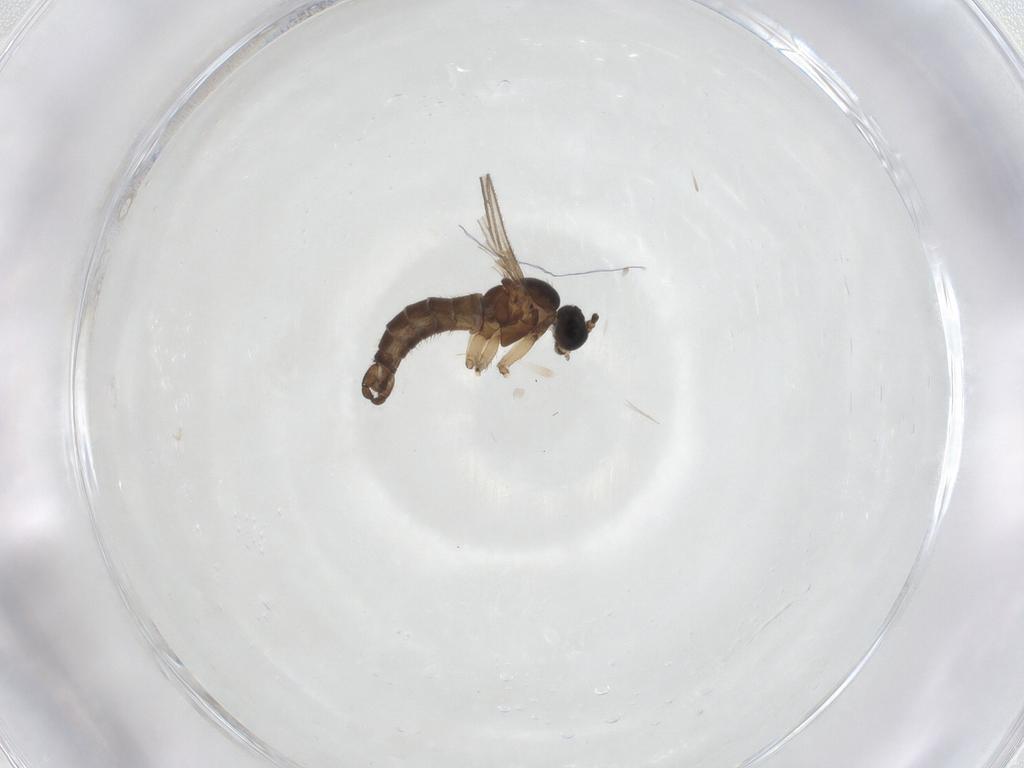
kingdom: Animalia
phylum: Arthropoda
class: Insecta
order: Diptera
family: Sciaridae
